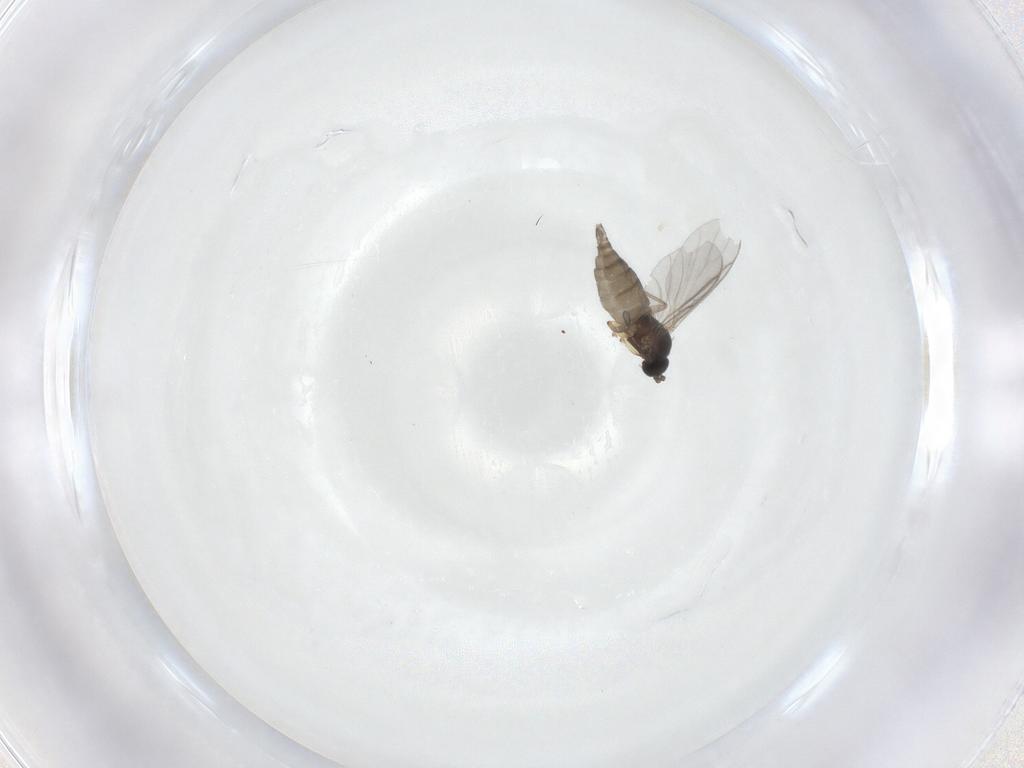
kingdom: Animalia
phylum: Arthropoda
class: Insecta
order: Diptera
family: Sciaridae
